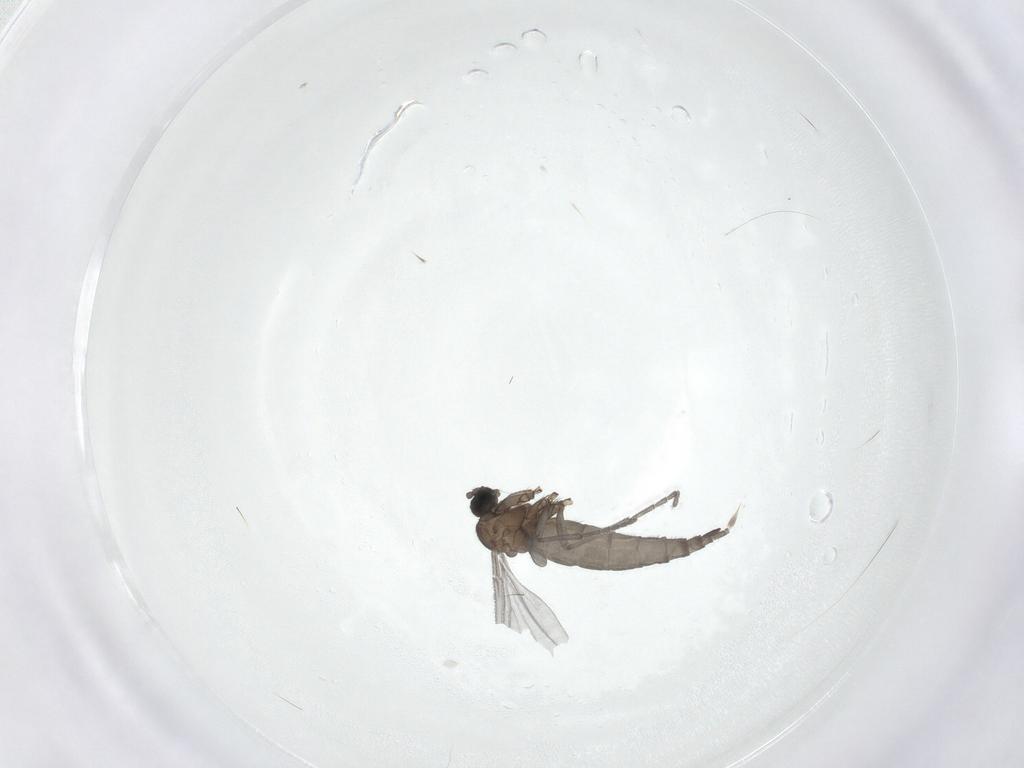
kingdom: Animalia
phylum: Arthropoda
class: Insecta
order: Diptera
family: Sciaridae
